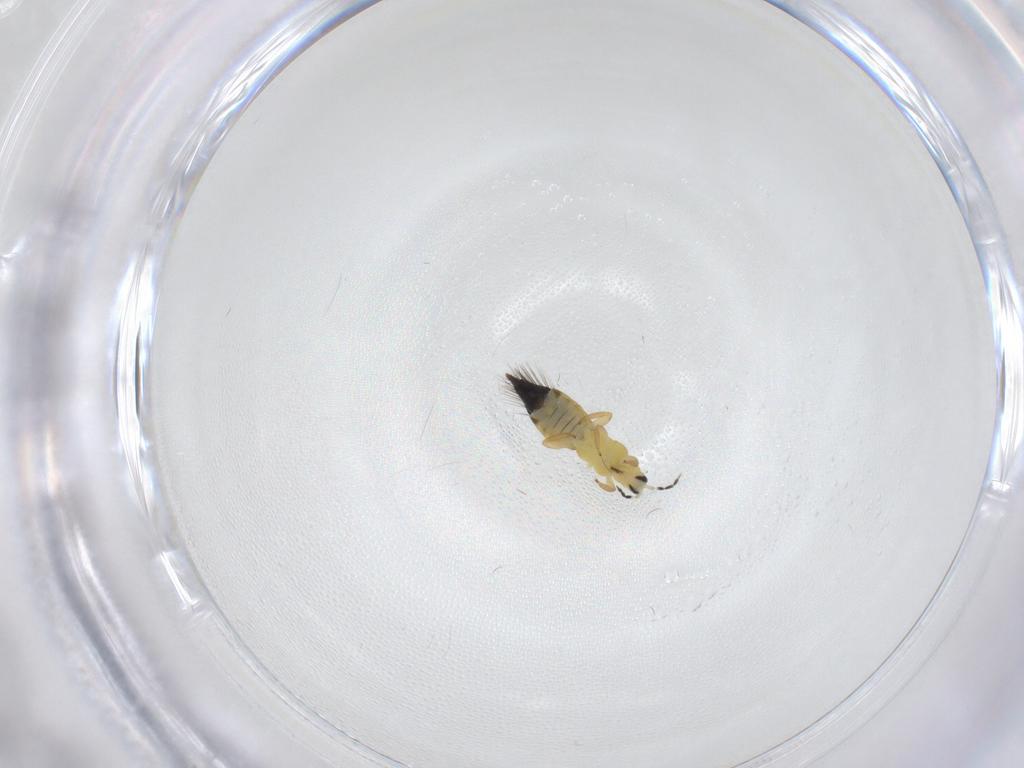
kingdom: Animalia
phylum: Arthropoda
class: Insecta
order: Thysanoptera
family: Aeolothripidae
